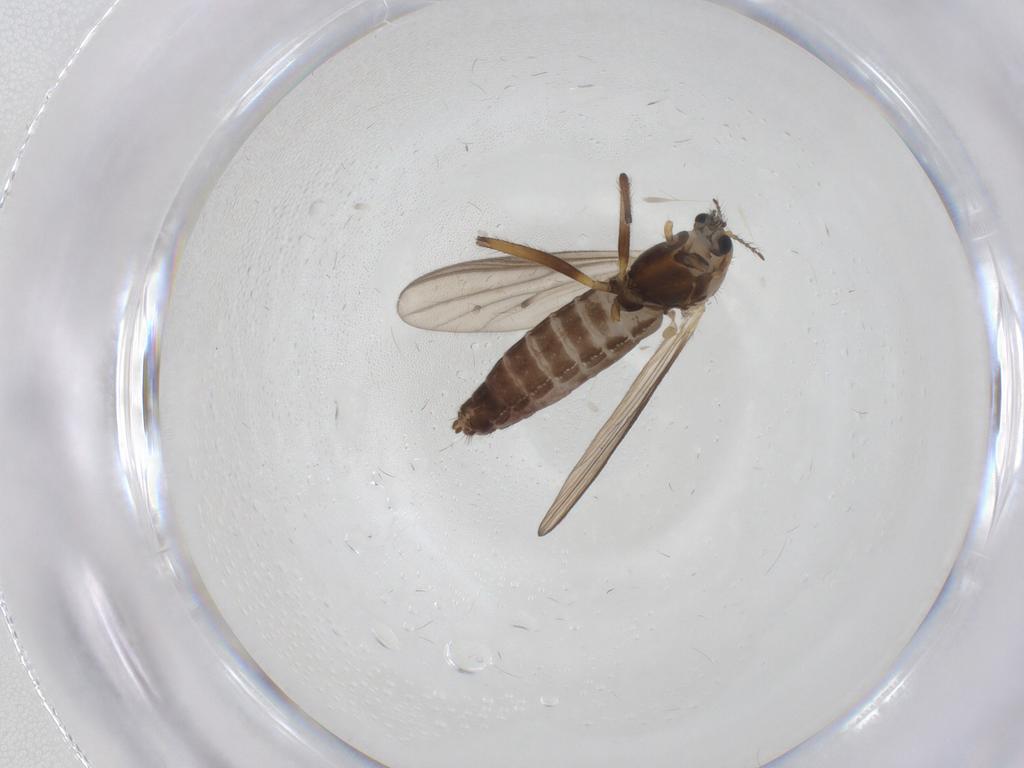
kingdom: Animalia
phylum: Arthropoda
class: Insecta
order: Diptera
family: Chironomidae
